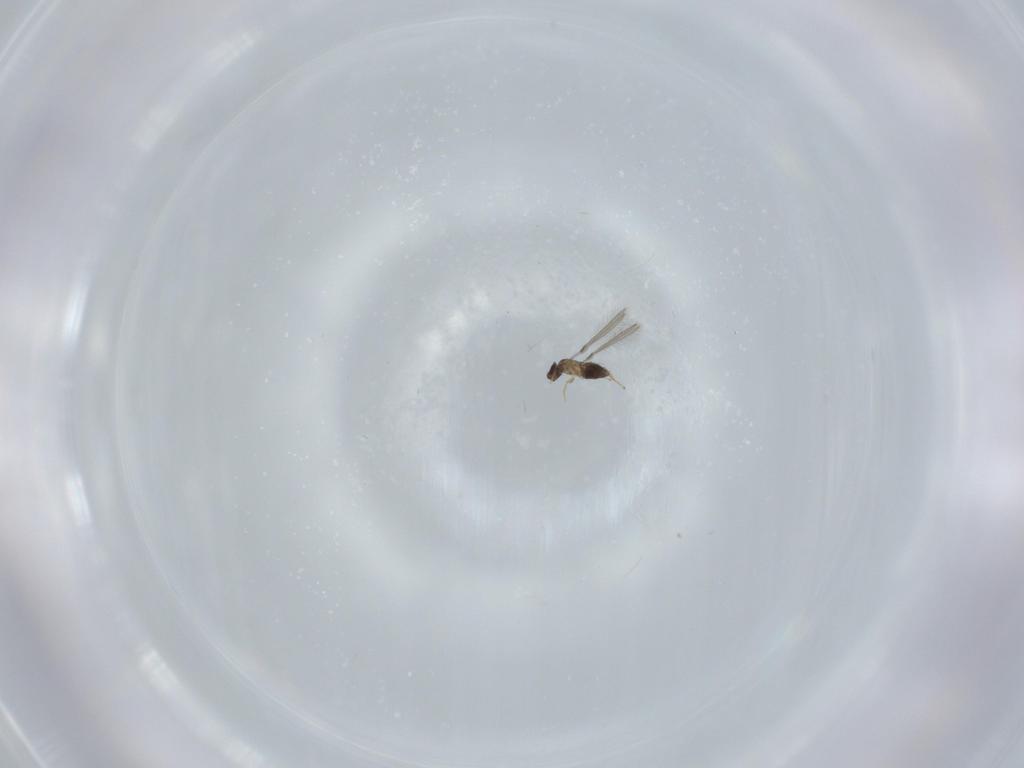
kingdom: Animalia
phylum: Arthropoda
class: Insecta
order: Hymenoptera
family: Mymaridae
